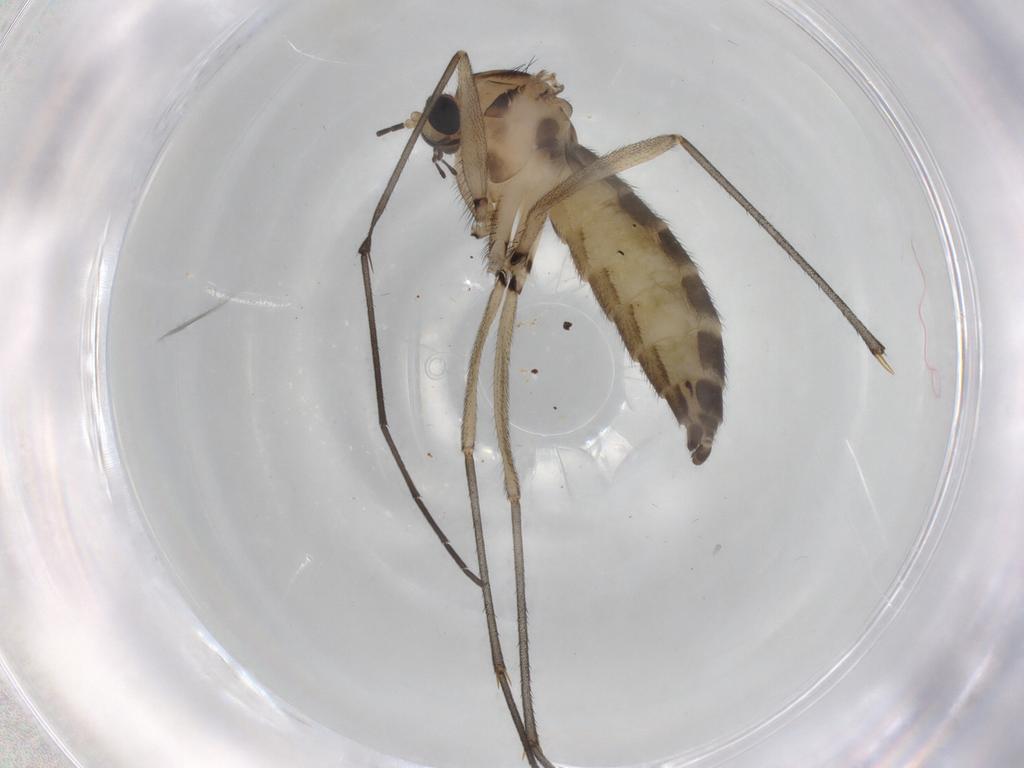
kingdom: Animalia
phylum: Arthropoda
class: Insecta
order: Diptera
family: Sciaridae
